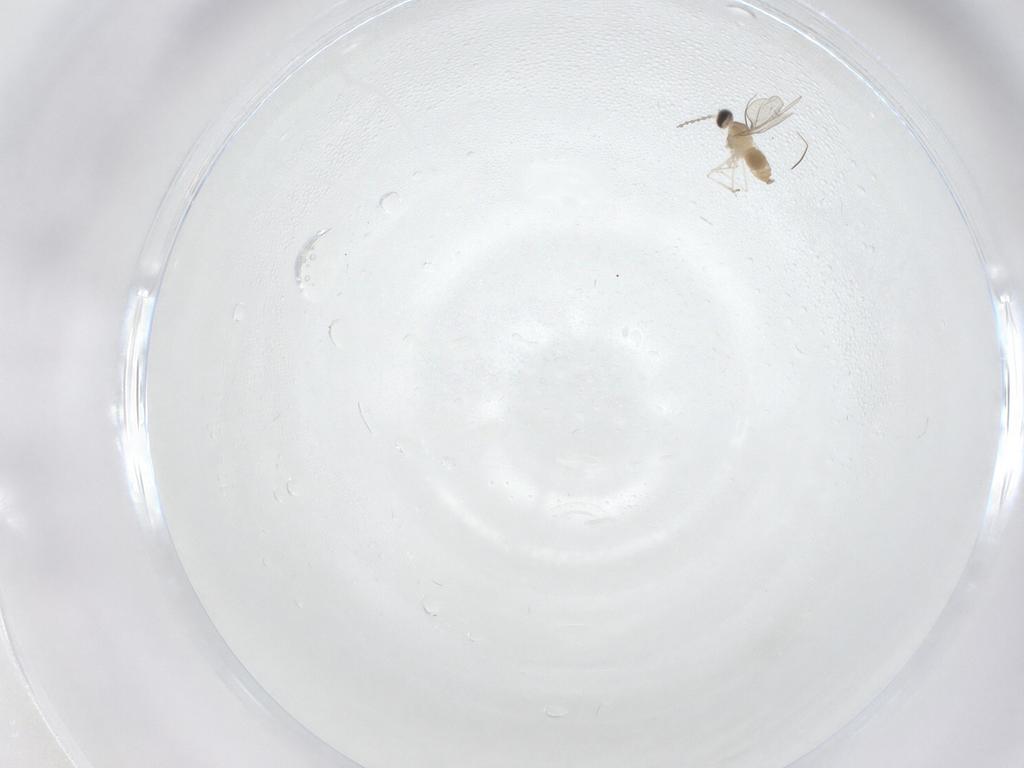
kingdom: Animalia
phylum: Arthropoda
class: Insecta
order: Diptera
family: Cecidomyiidae
